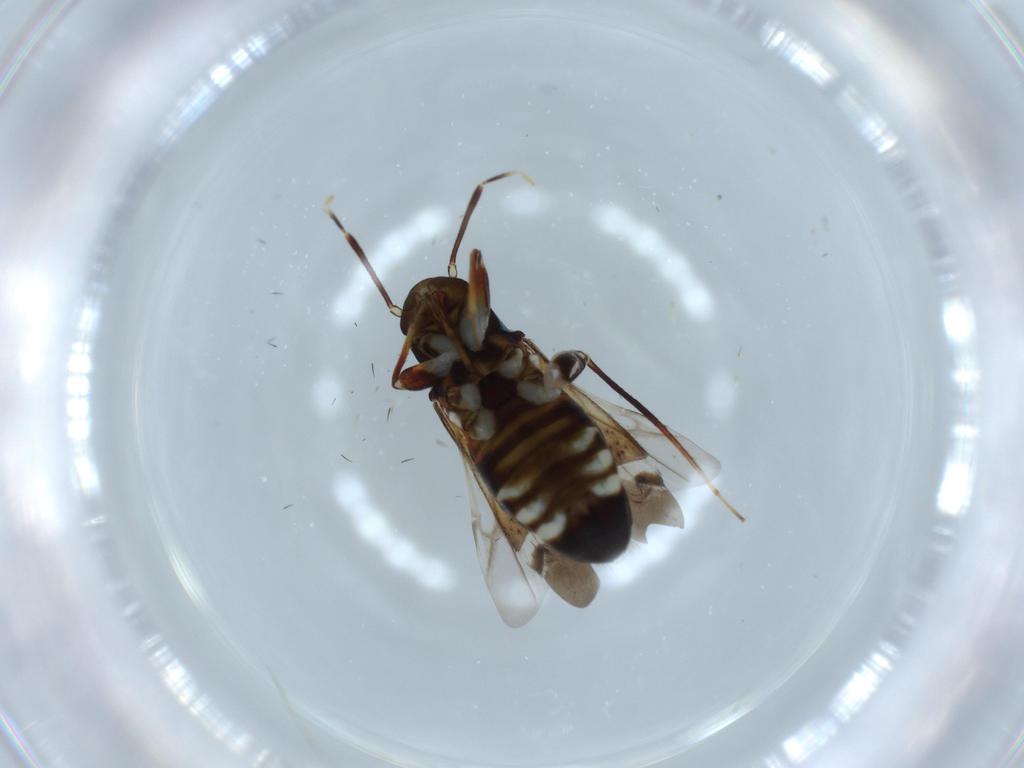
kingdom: Animalia
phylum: Arthropoda
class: Insecta
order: Hemiptera
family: Miridae
